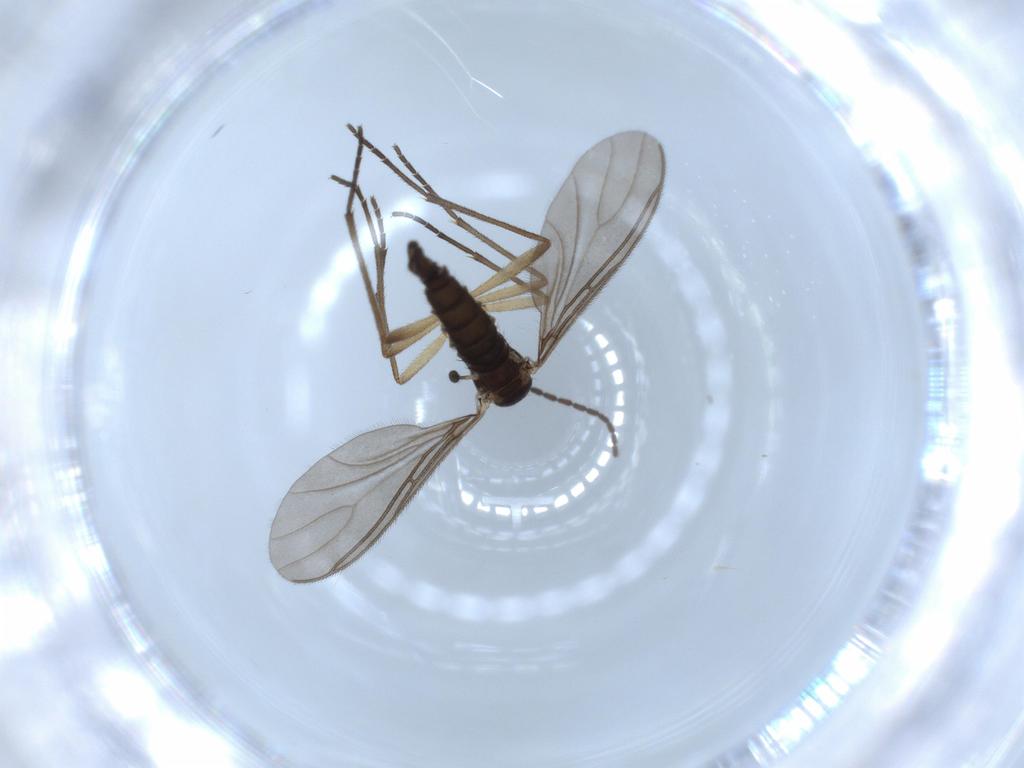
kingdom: Animalia
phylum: Arthropoda
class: Insecta
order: Diptera
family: Sciaridae
